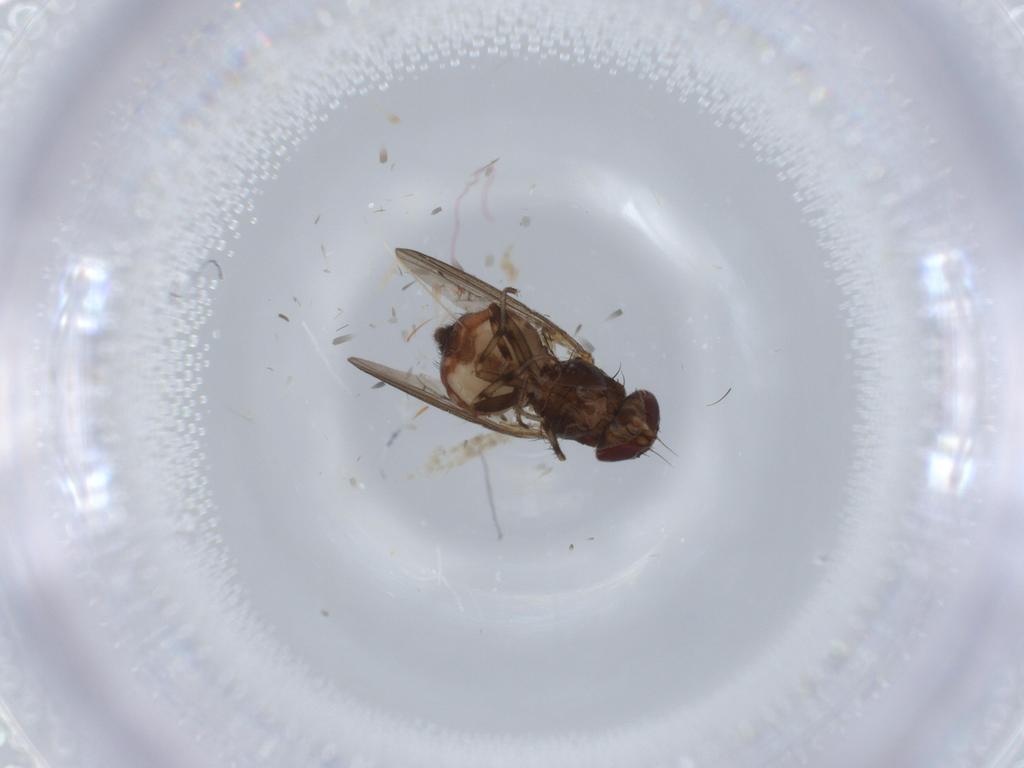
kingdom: Animalia
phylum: Arthropoda
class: Insecta
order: Diptera
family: Heleomyzidae
